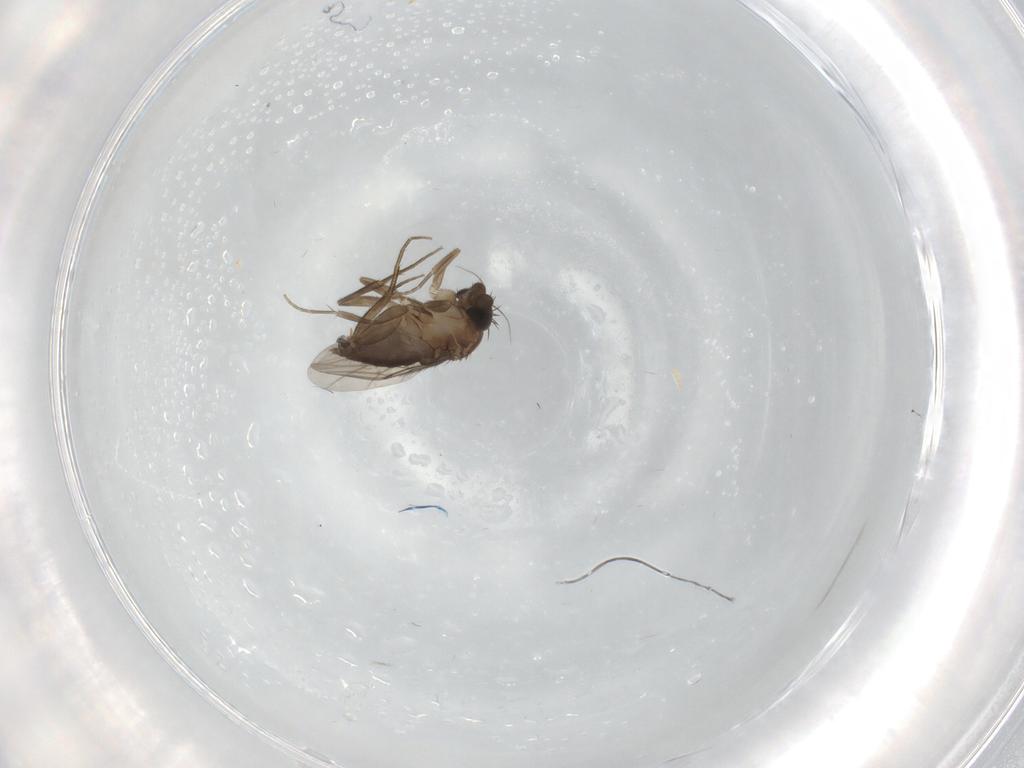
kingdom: Animalia
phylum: Arthropoda
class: Insecta
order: Diptera
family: Phoridae
